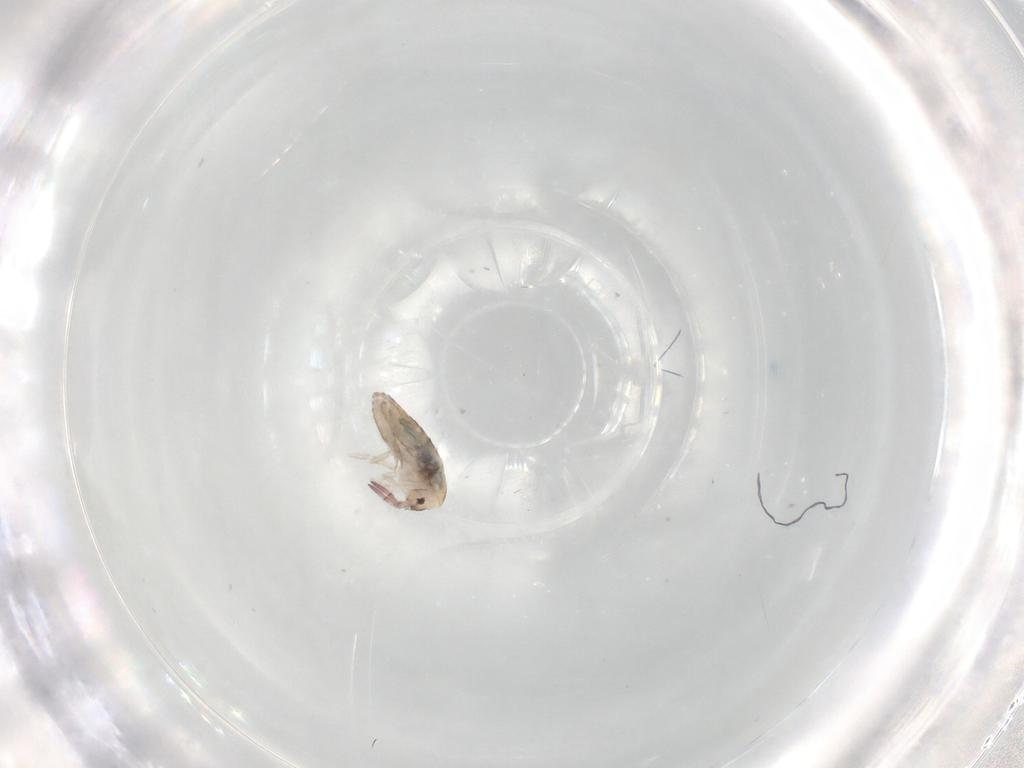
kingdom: Animalia
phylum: Arthropoda
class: Collembola
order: Entomobryomorpha
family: Entomobryidae
